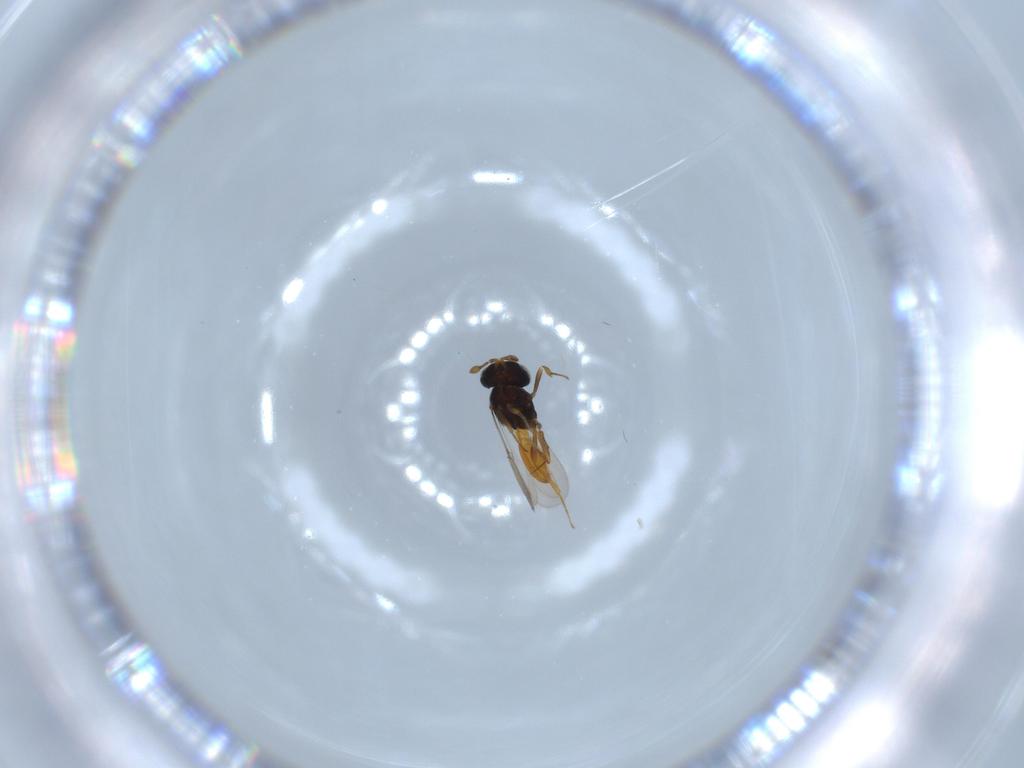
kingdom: Animalia
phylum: Arthropoda
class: Insecta
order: Hymenoptera
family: Scelionidae
